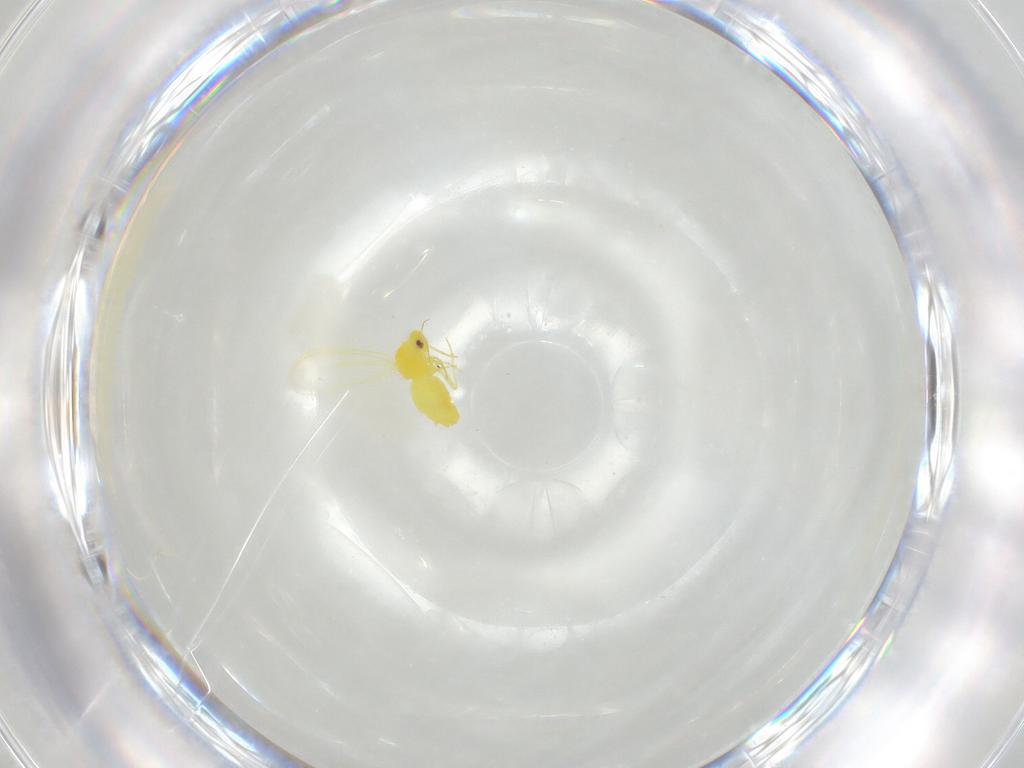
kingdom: Animalia
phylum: Arthropoda
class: Insecta
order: Hemiptera
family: Aleyrodidae
